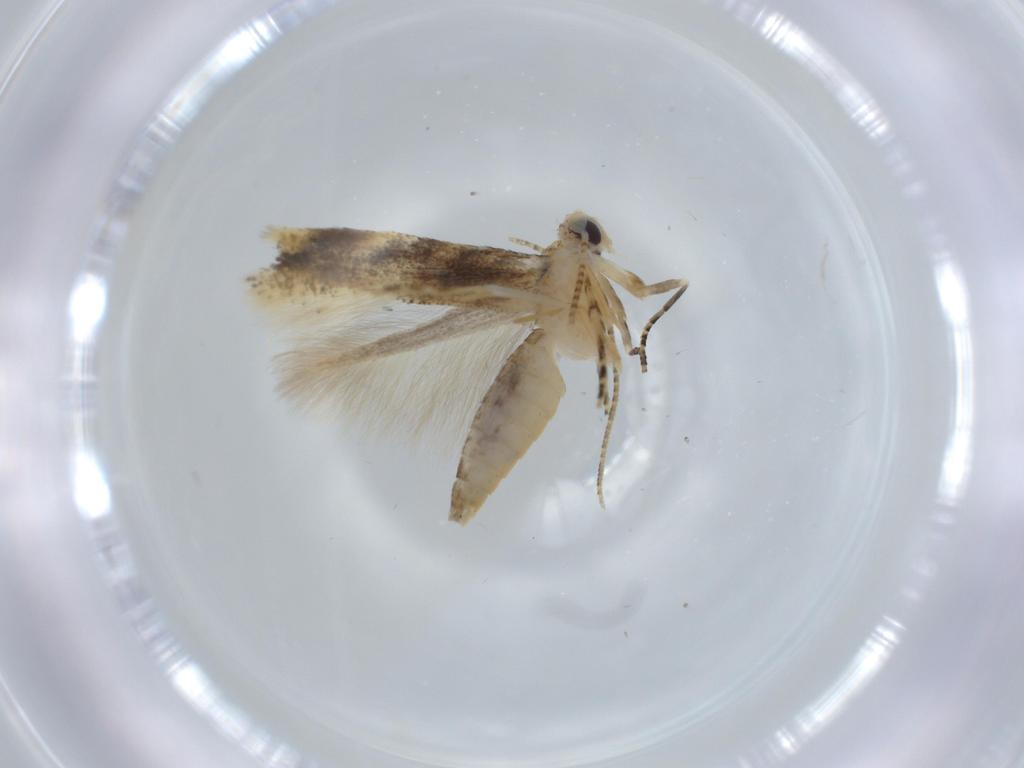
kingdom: Animalia
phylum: Arthropoda
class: Insecta
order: Lepidoptera
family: Bucculatricidae
